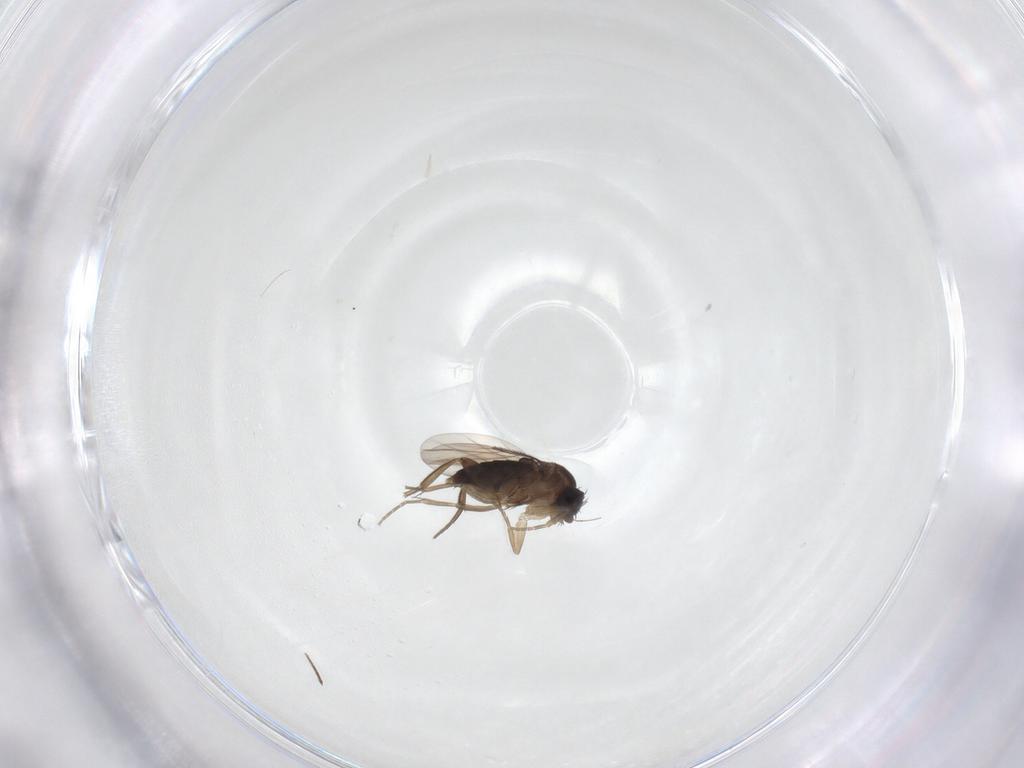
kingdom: Animalia
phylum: Arthropoda
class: Insecta
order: Diptera
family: Phoridae
